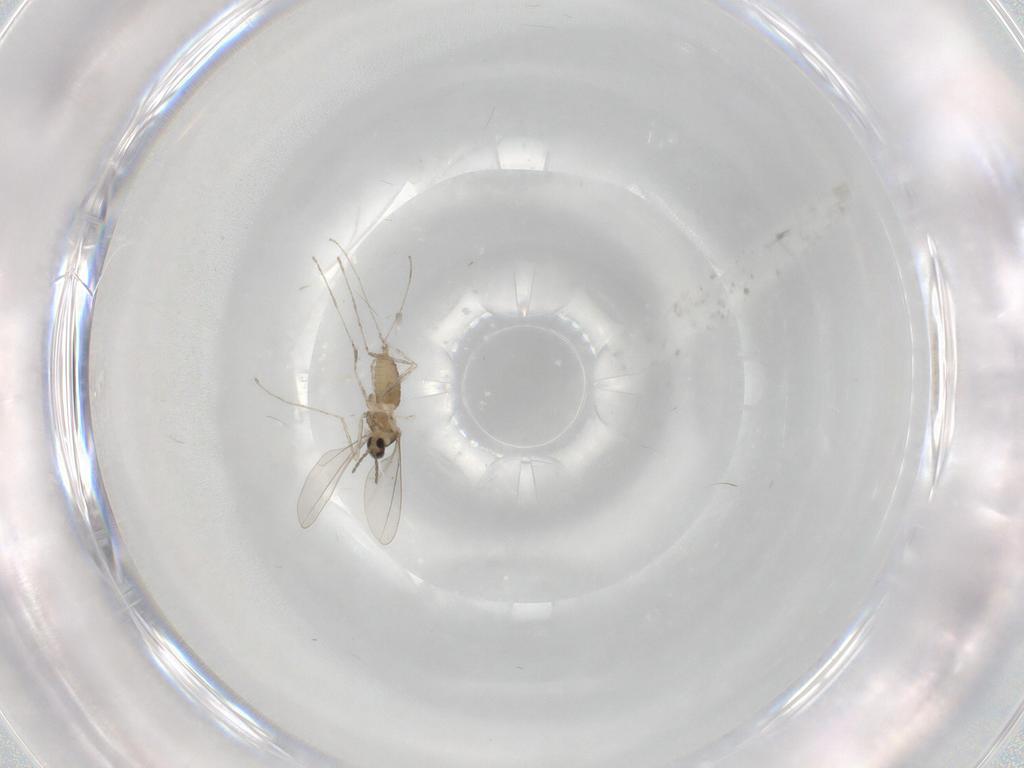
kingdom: Animalia
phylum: Arthropoda
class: Insecta
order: Diptera
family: Cecidomyiidae
